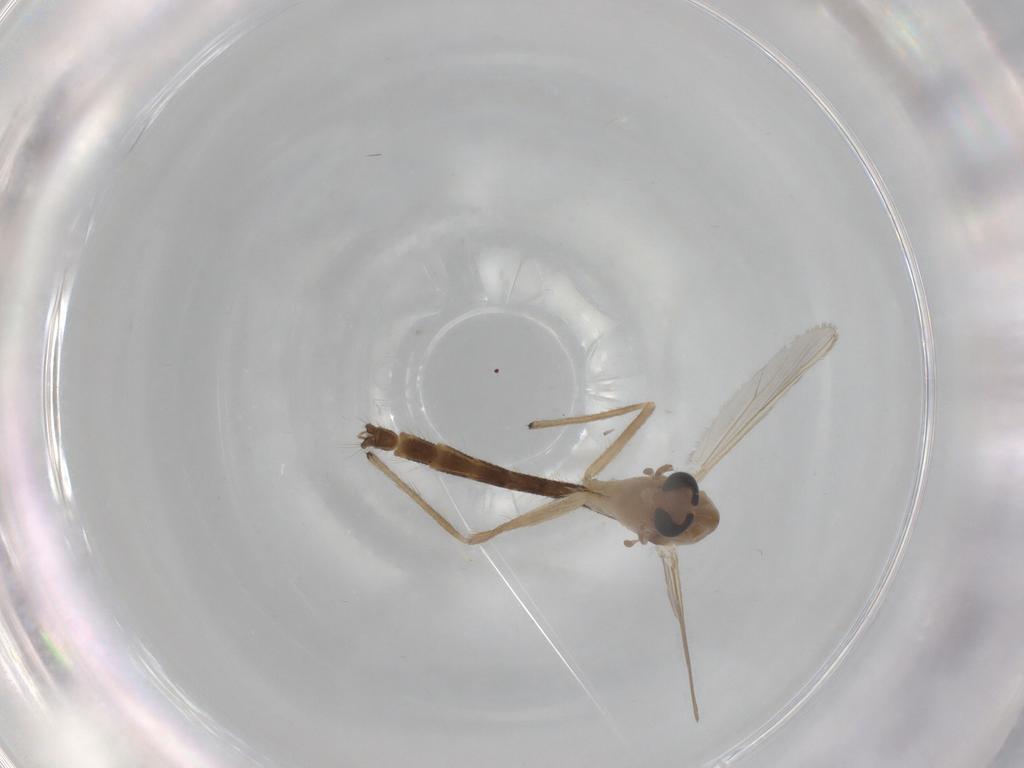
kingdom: Animalia
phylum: Arthropoda
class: Insecta
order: Diptera
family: Chironomidae
